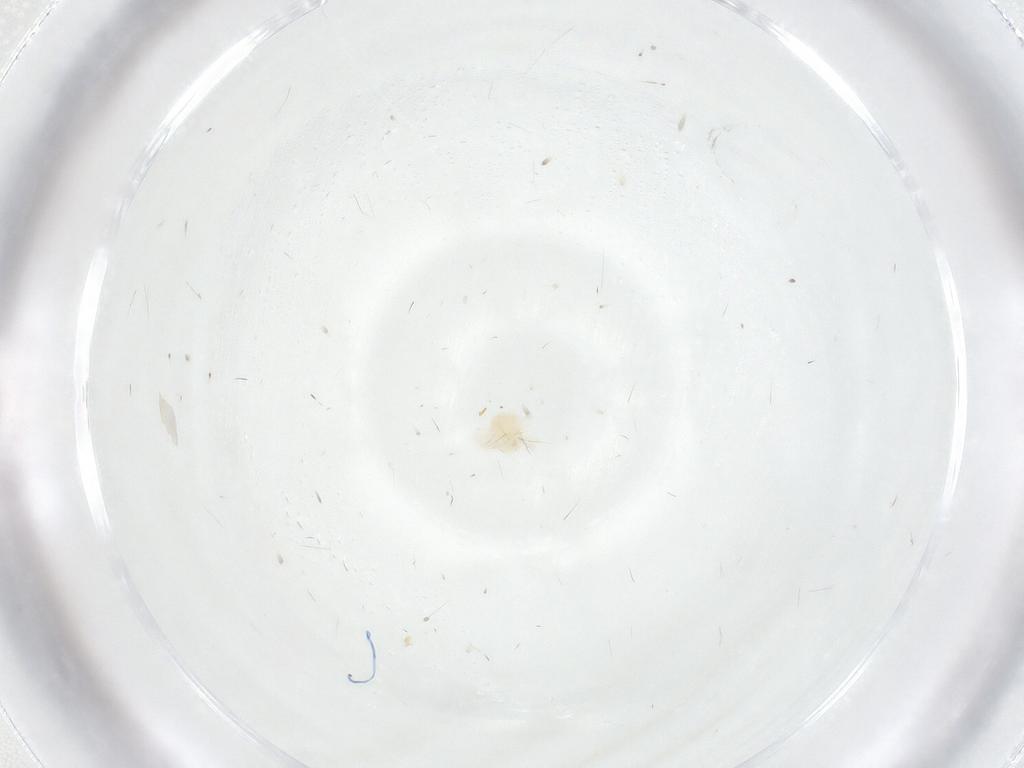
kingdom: Animalia
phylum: Arthropoda
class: Arachnida
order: Trombidiformes
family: Anystidae
